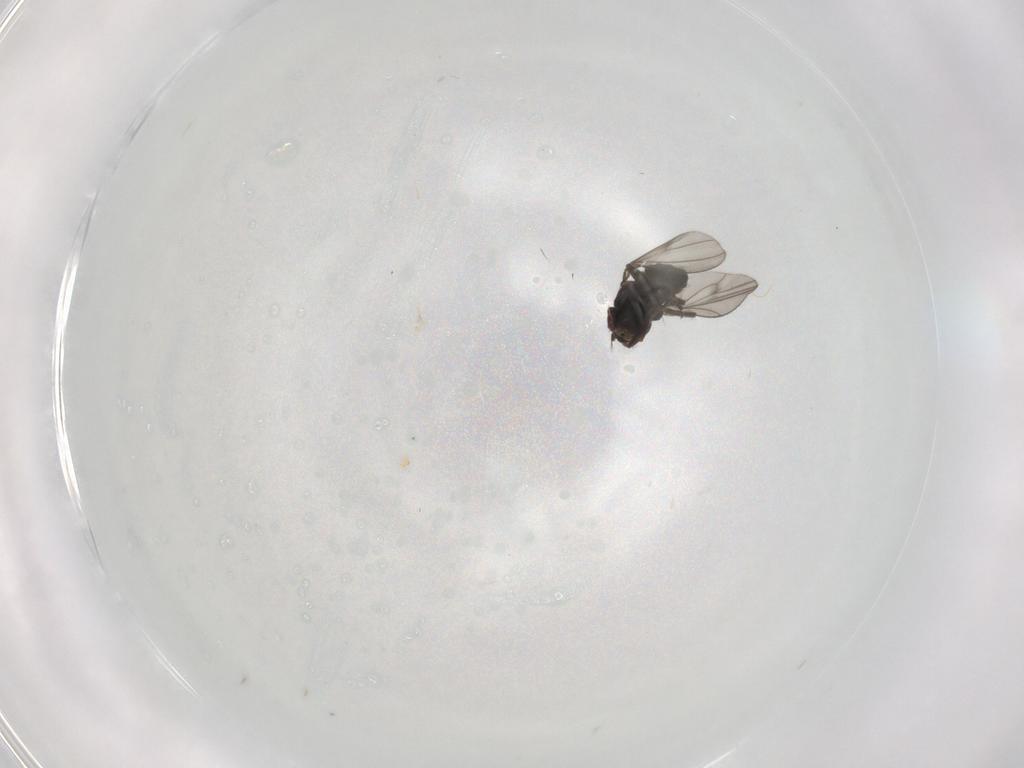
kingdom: Animalia
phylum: Arthropoda
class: Insecta
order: Diptera
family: Ephydridae
